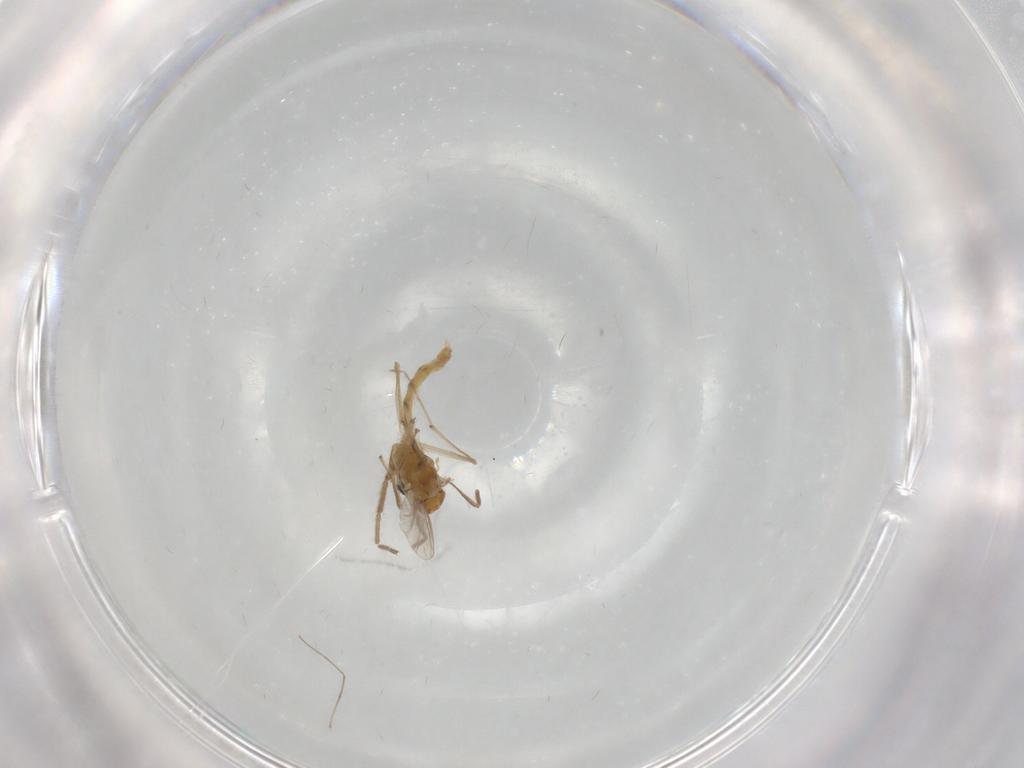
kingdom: Animalia
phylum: Arthropoda
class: Insecta
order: Diptera
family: Chironomidae
